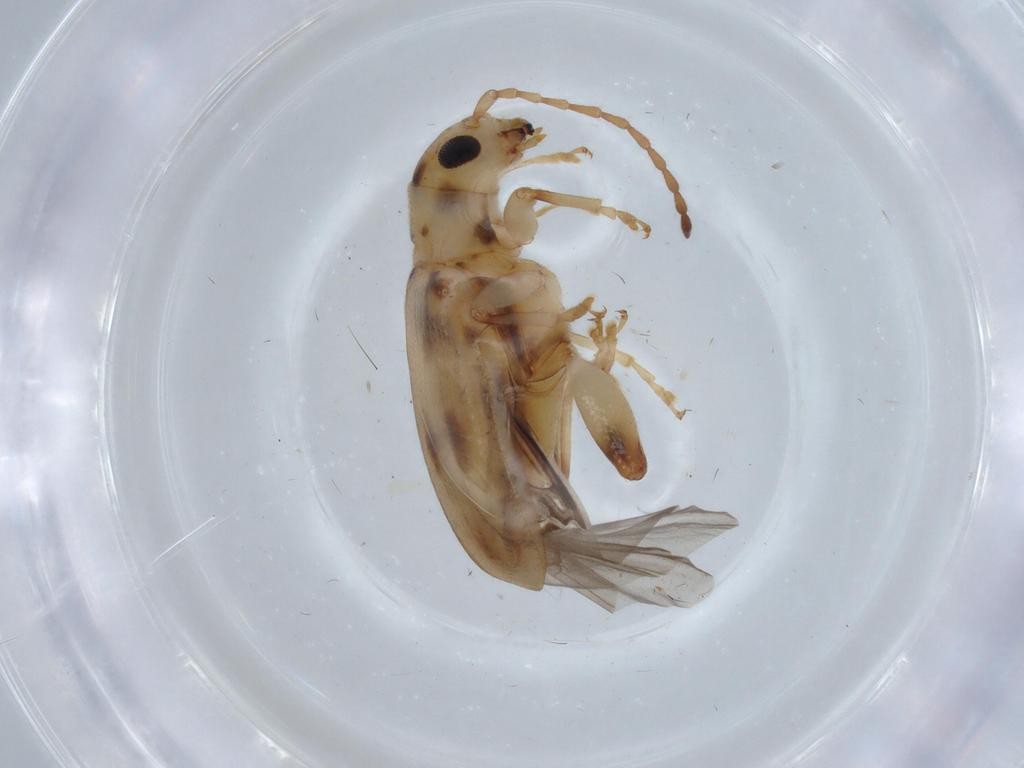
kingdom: Animalia
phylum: Arthropoda
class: Insecta
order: Coleoptera
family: Chrysomelidae
